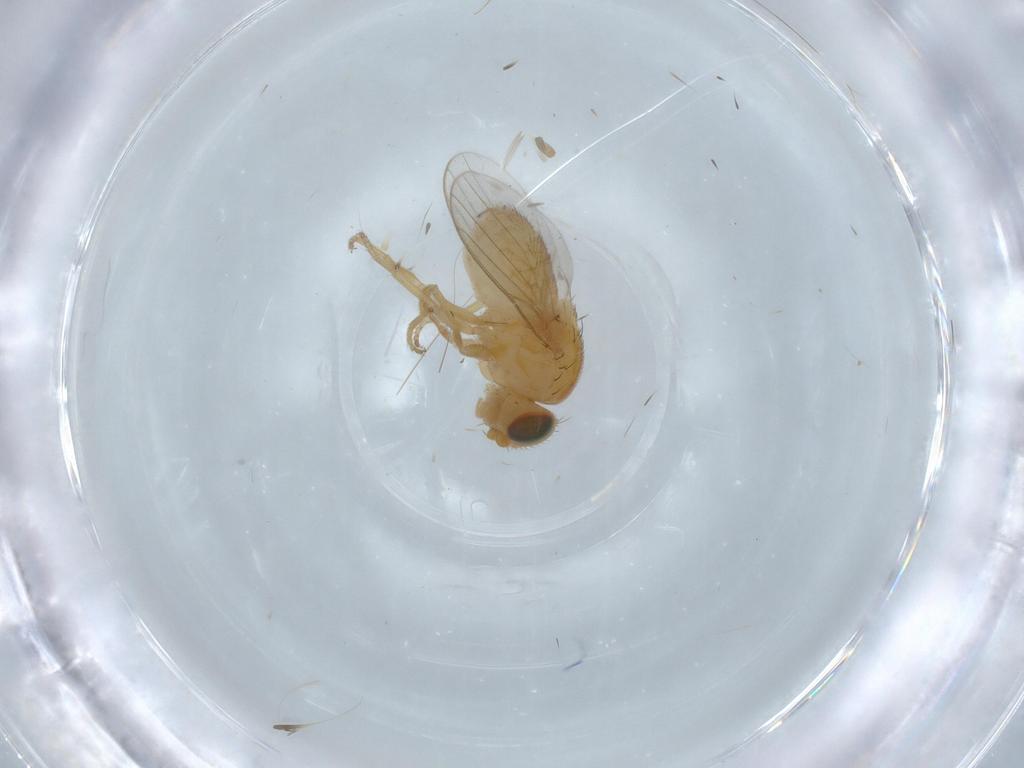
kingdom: Animalia
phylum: Arthropoda
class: Insecta
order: Diptera
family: Chloropidae
